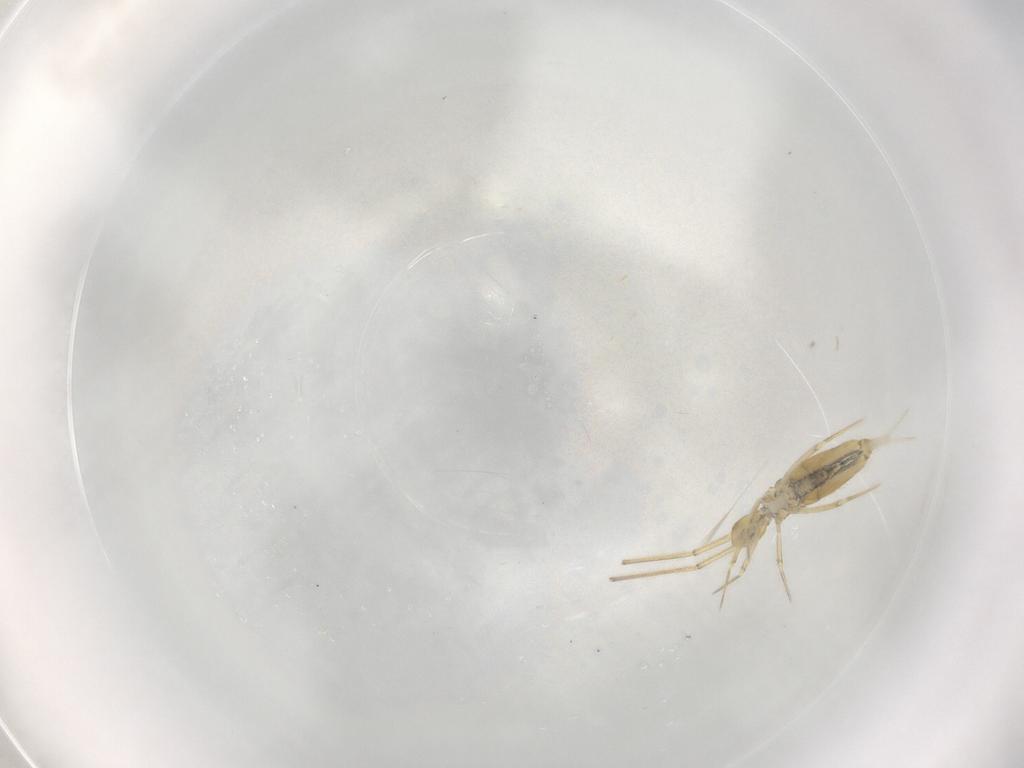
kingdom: Animalia
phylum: Arthropoda
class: Collembola
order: Entomobryomorpha
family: Paronellidae
